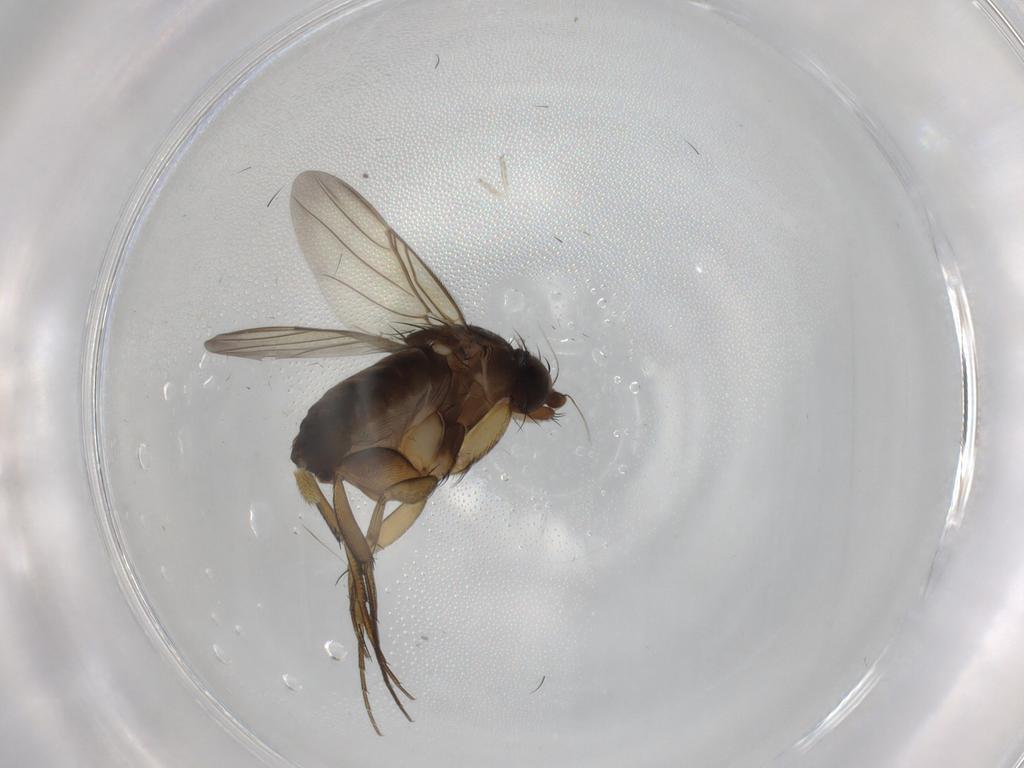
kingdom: Animalia
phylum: Arthropoda
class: Insecta
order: Diptera
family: Phoridae
